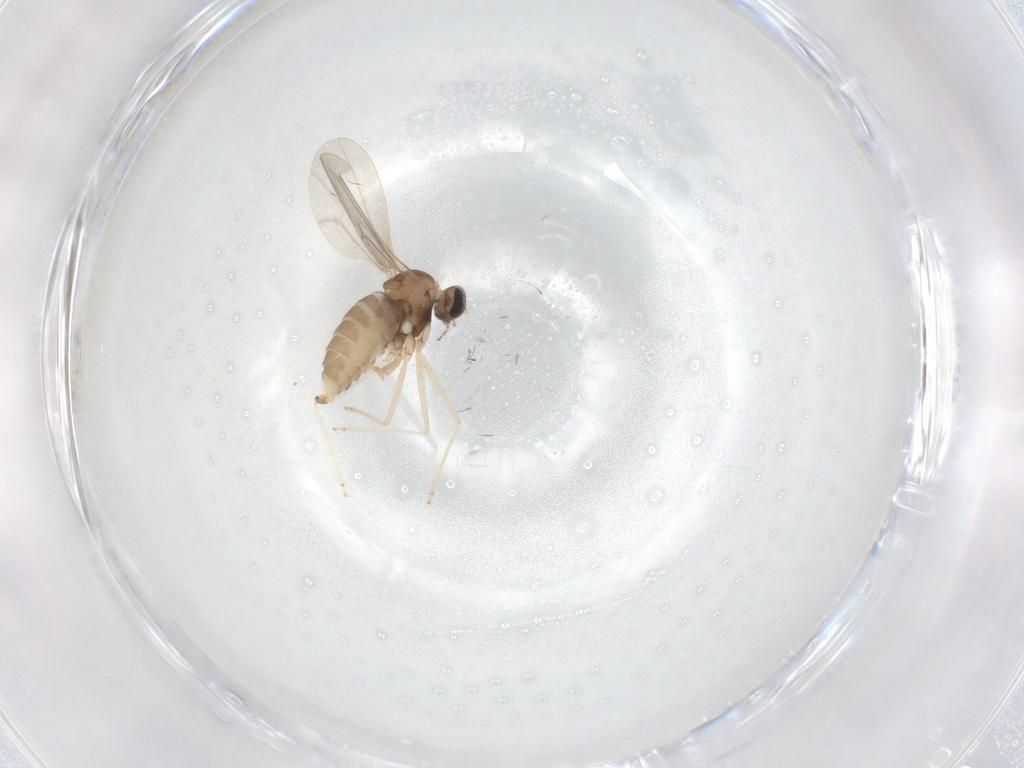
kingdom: Animalia
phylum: Arthropoda
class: Insecta
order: Diptera
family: Cecidomyiidae
